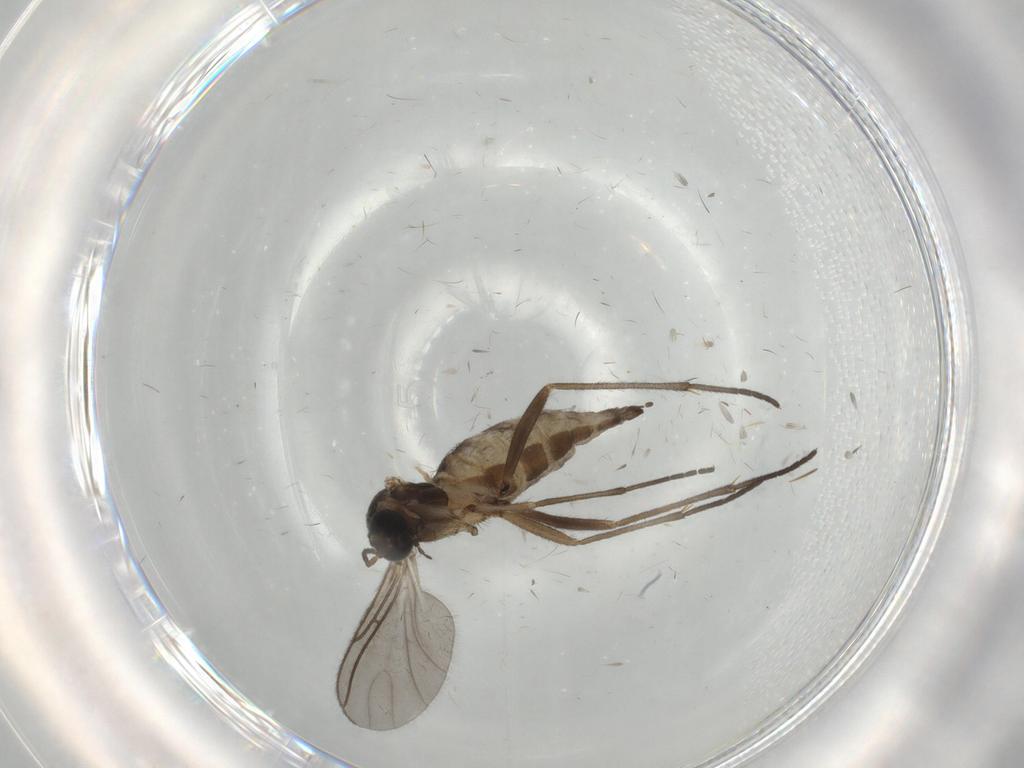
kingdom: Animalia
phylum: Arthropoda
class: Insecta
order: Diptera
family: Sciaridae
